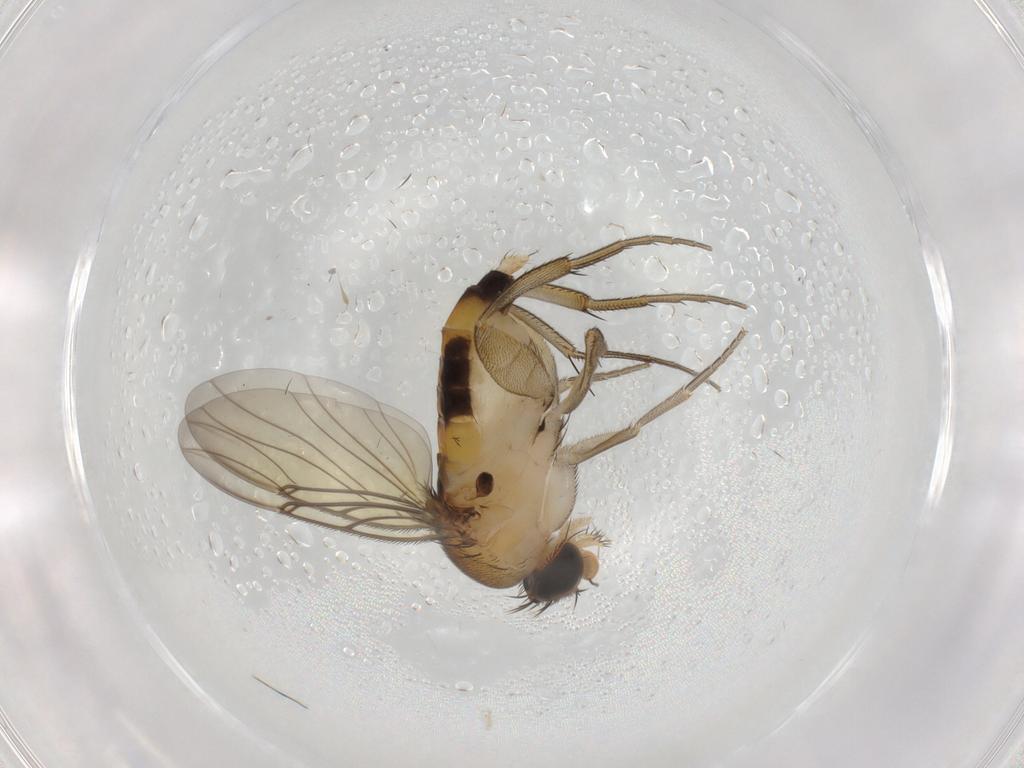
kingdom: Animalia
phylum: Arthropoda
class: Insecta
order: Diptera
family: Phoridae
